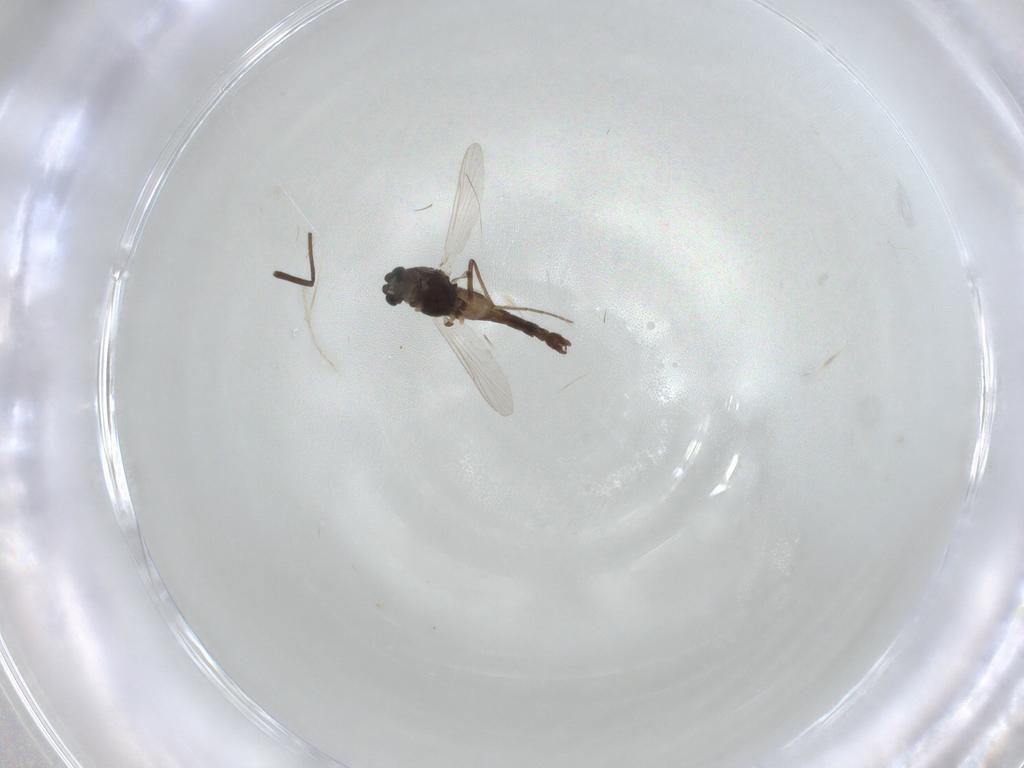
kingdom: Animalia
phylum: Arthropoda
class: Insecta
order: Diptera
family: Chironomidae
